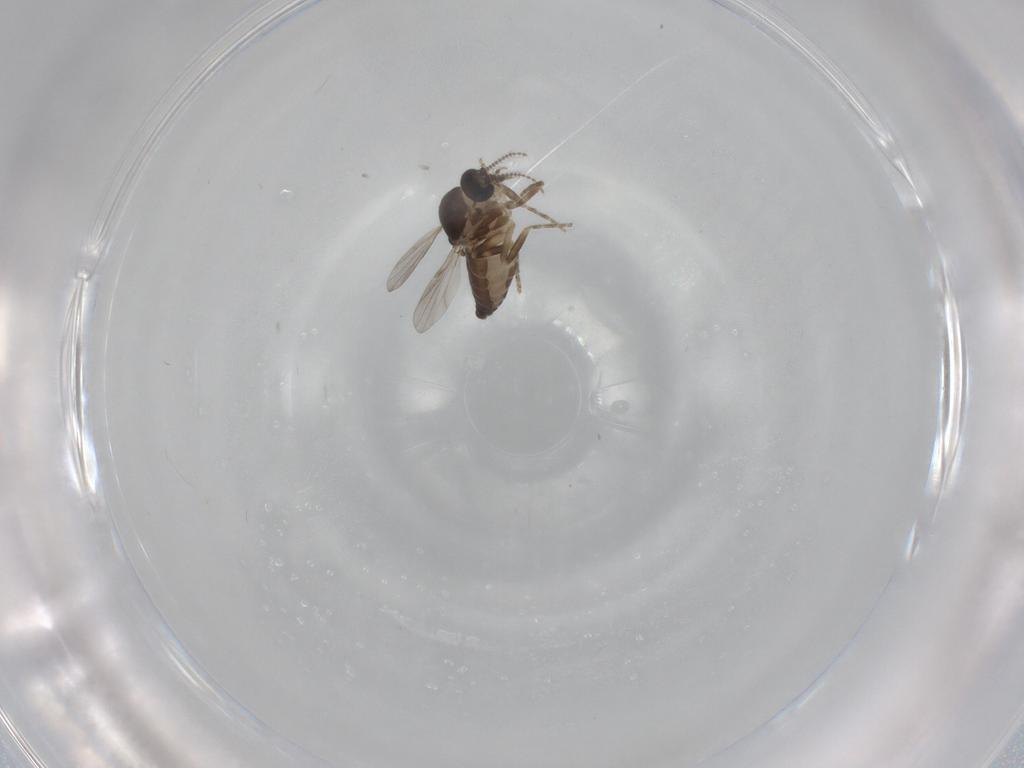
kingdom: Animalia
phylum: Arthropoda
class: Insecta
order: Diptera
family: Ceratopogonidae
